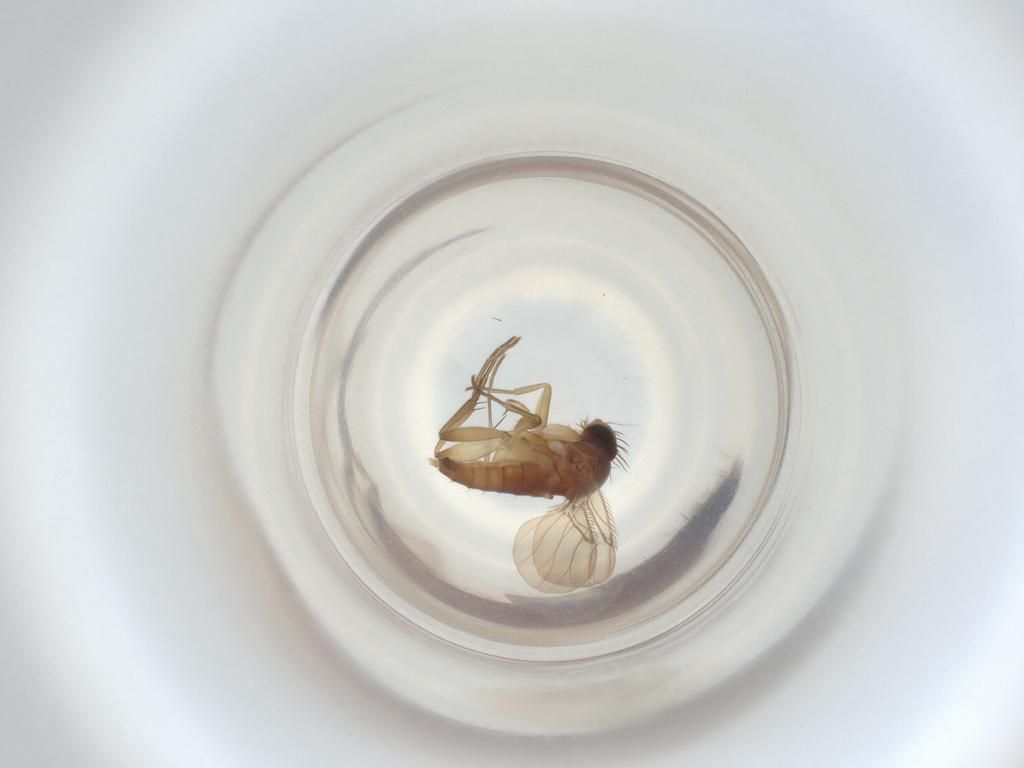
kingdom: Animalia
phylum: Arthropoda
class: Insecta
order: Diptera
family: Phoridae
